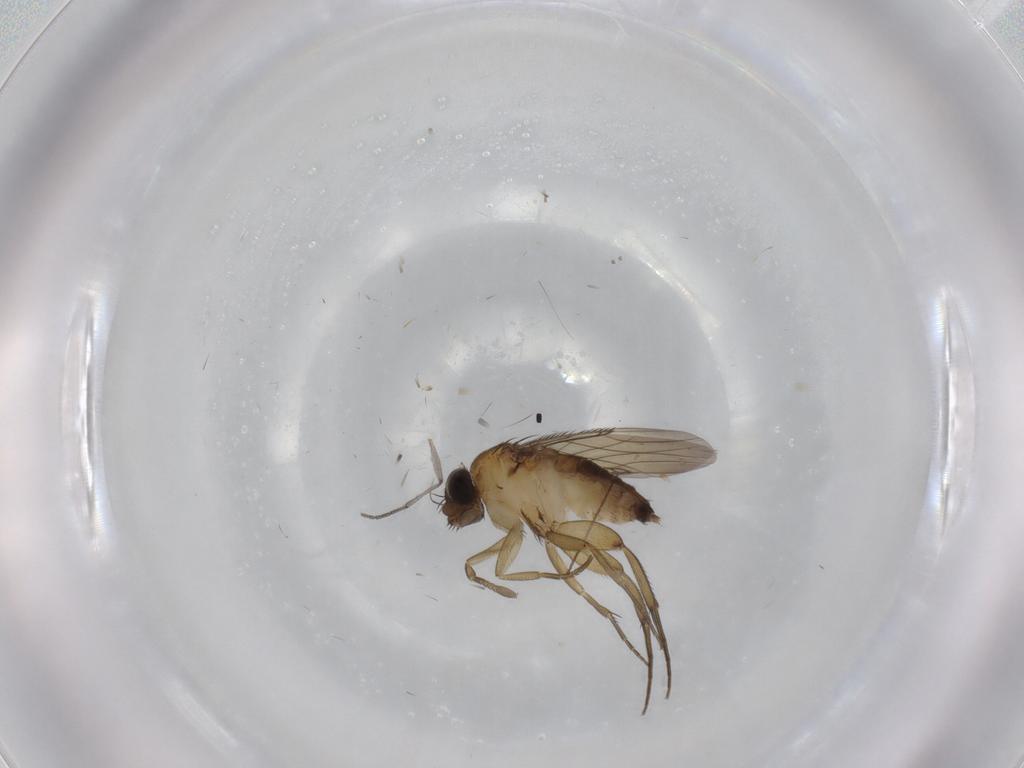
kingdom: Animalia
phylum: Arthropoda
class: Insecta
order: Diptera
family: Phoridae
